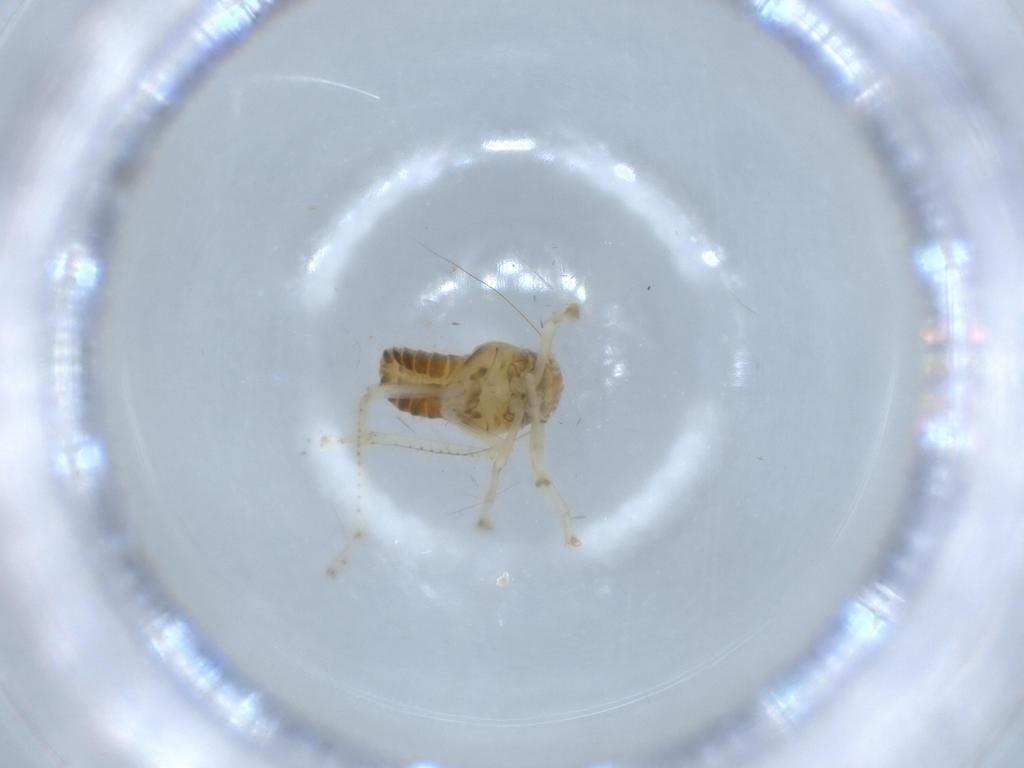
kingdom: Animalia
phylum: Arthropoda
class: Insecta
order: Hemiptera
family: Cicadellidae
